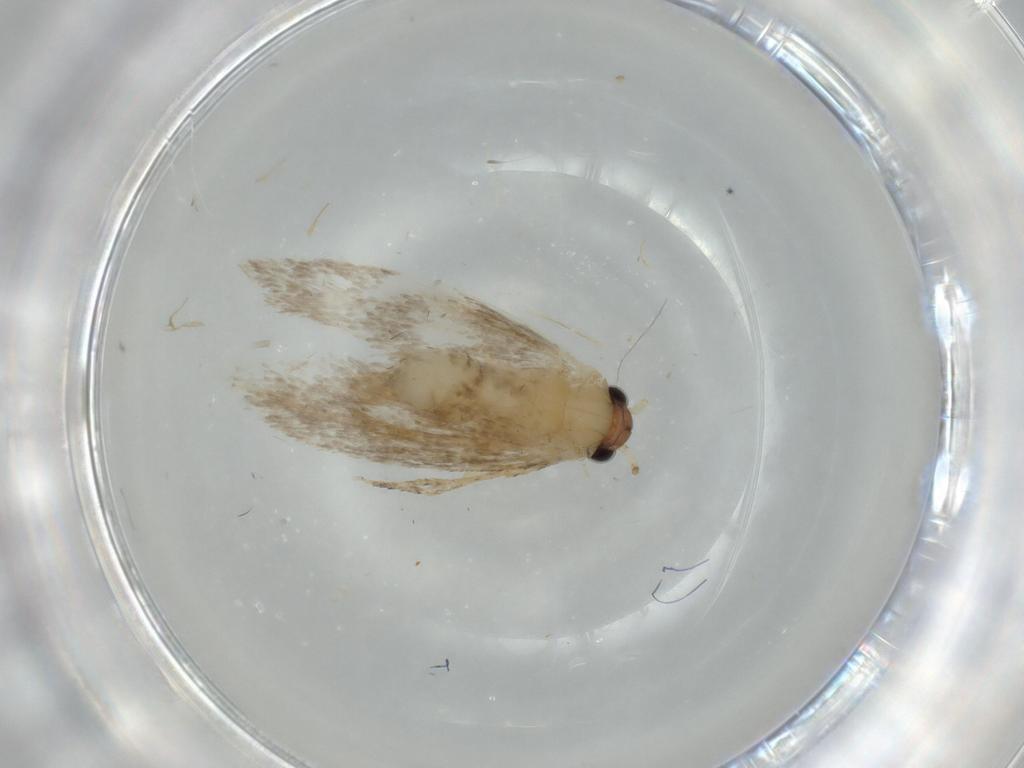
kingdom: Animalia
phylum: Arthropoda
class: Insecta
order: Lepidoptera
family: Tineidae
